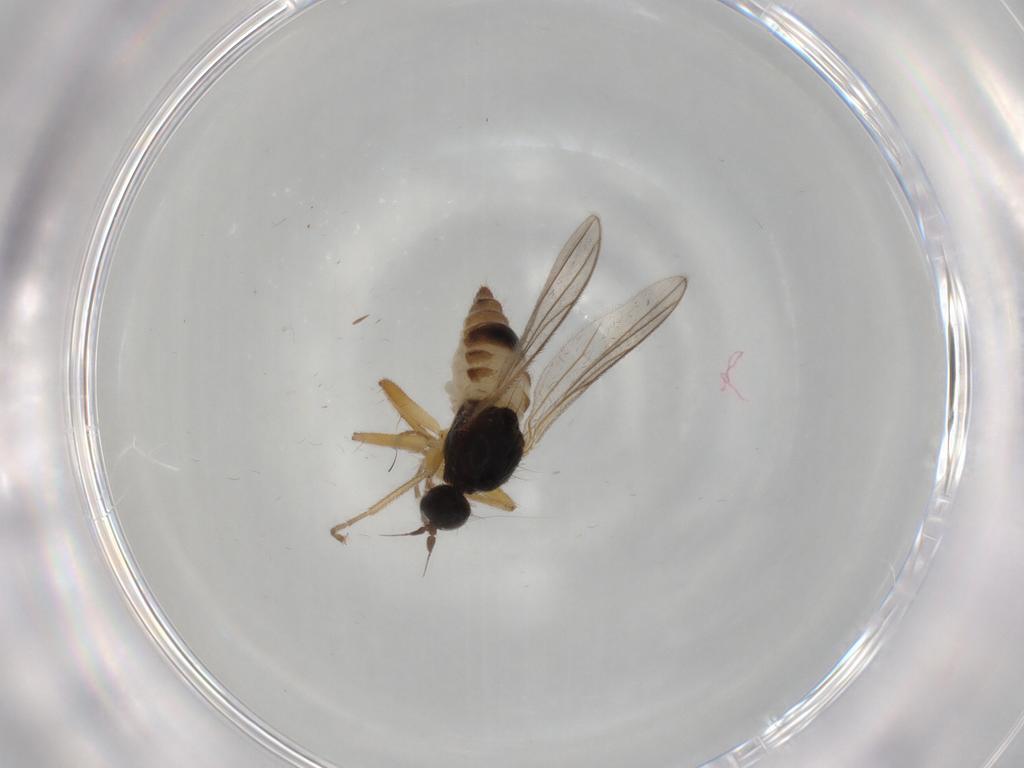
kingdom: Animalia
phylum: Arthropoda
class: Insecta
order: Diptera
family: Hybotidae
